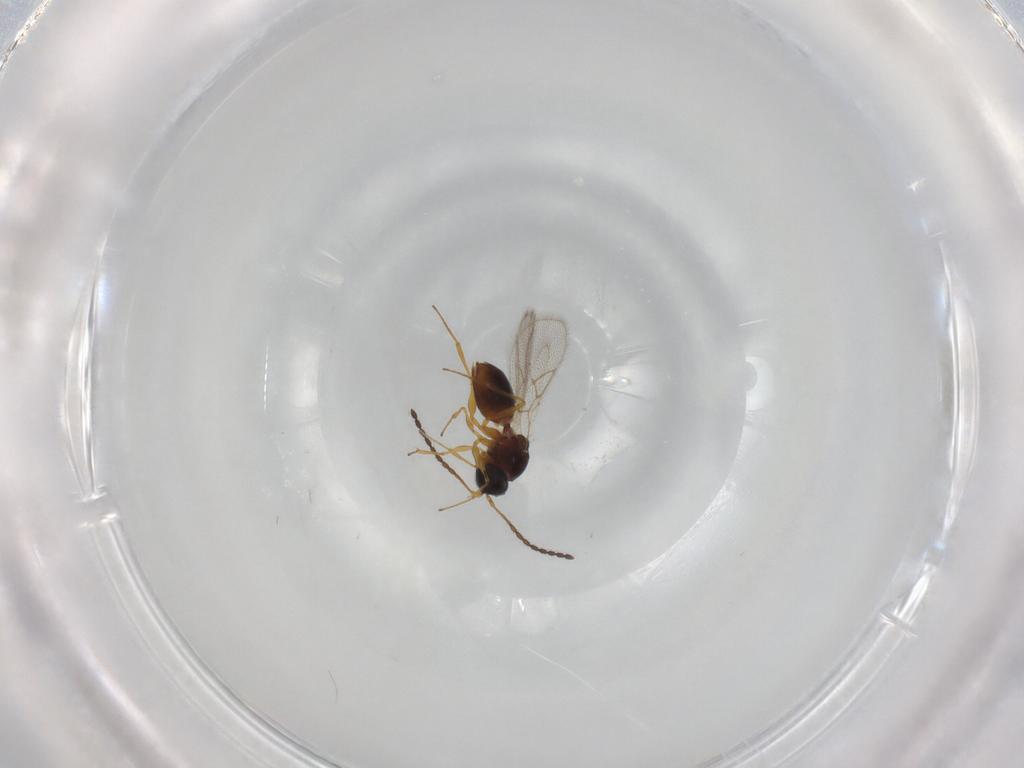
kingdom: Animalia
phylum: Arthropoda
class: Insecta
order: Hymenoptera
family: Figitidae
